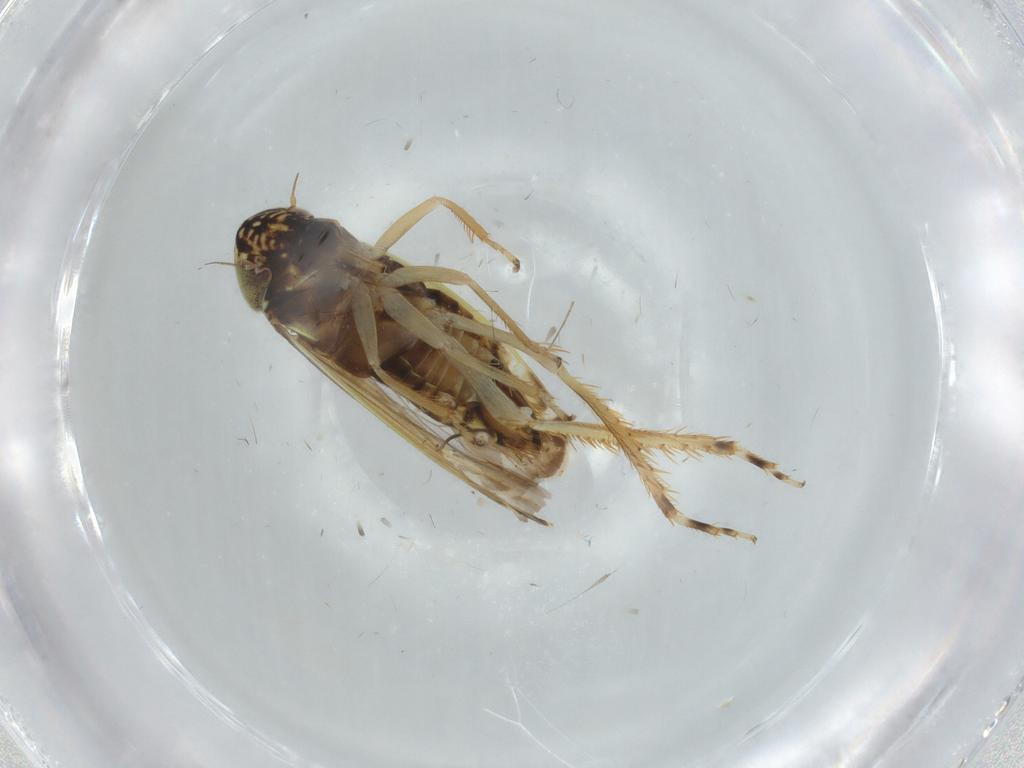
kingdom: Animalia
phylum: Arthropoda
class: Insecta
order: Hemiptera
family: Cicadellidae
